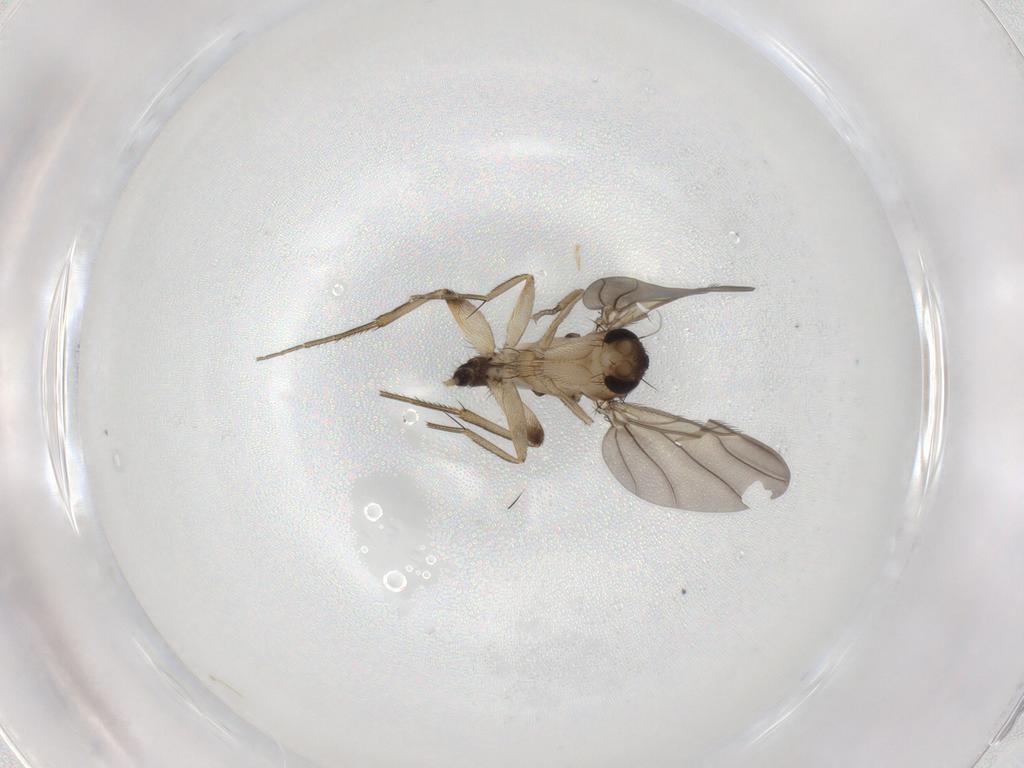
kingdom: Animalia
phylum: Arthropoda
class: Insecta
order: Diptera
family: Phoridae
